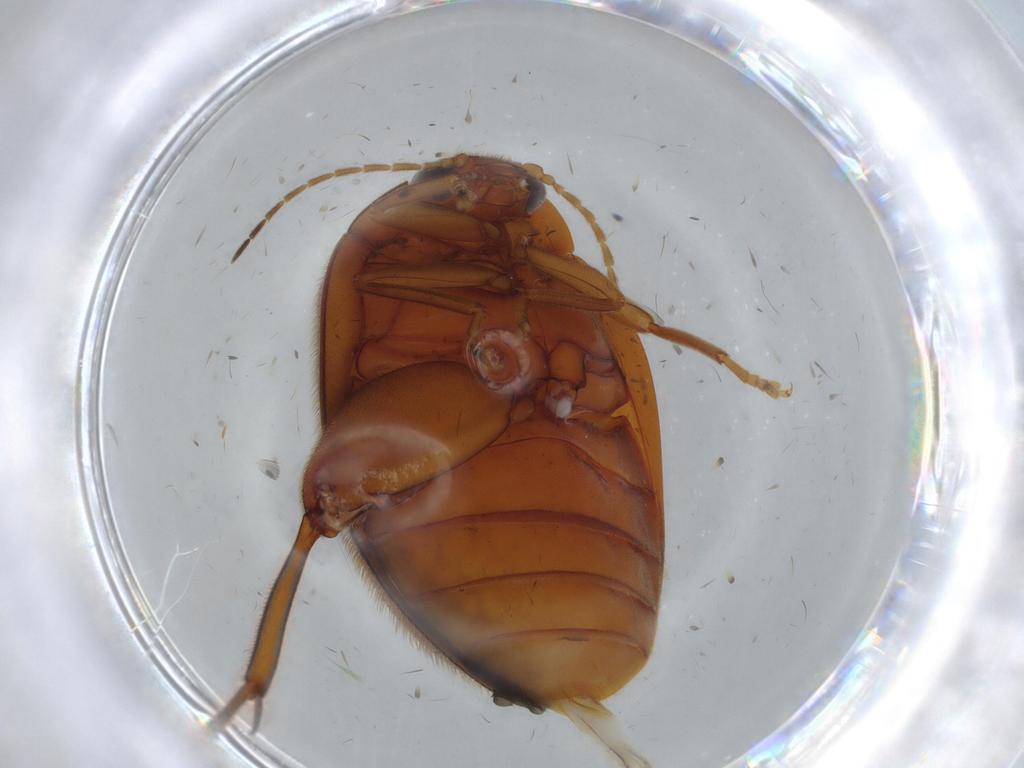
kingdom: Animalia
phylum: Arthropoda
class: Insecta
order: Coleoptera
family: Scirtidae
